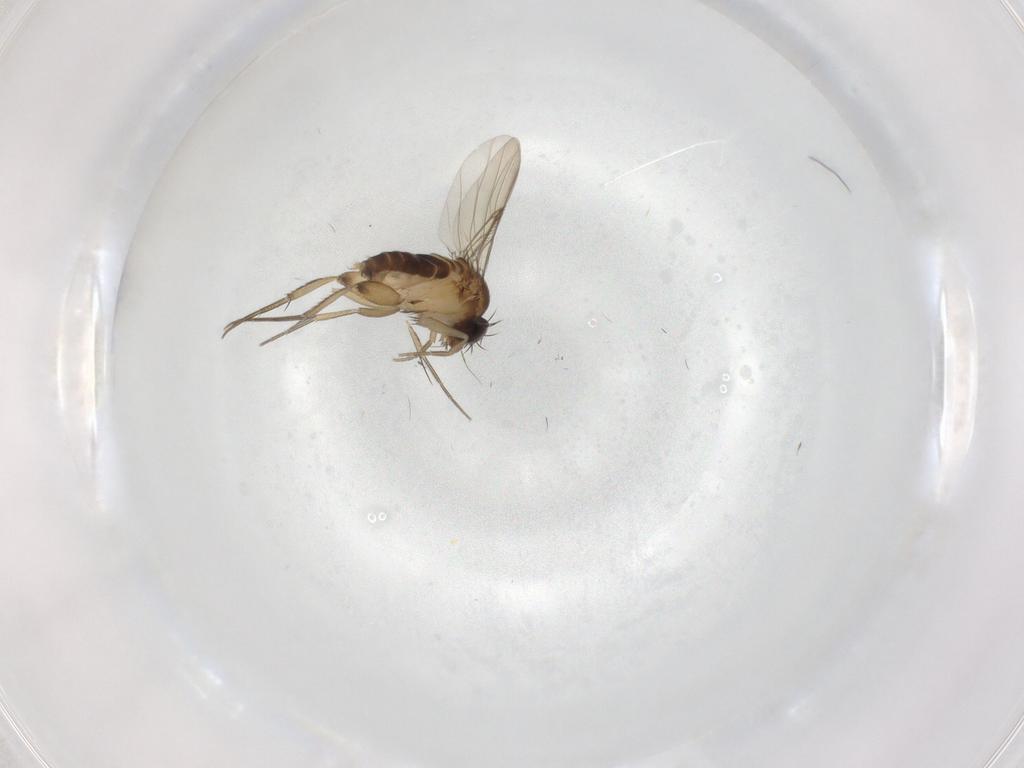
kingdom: Animalia
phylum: Arthropoda
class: Insecta
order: Diptera
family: Phoridae
